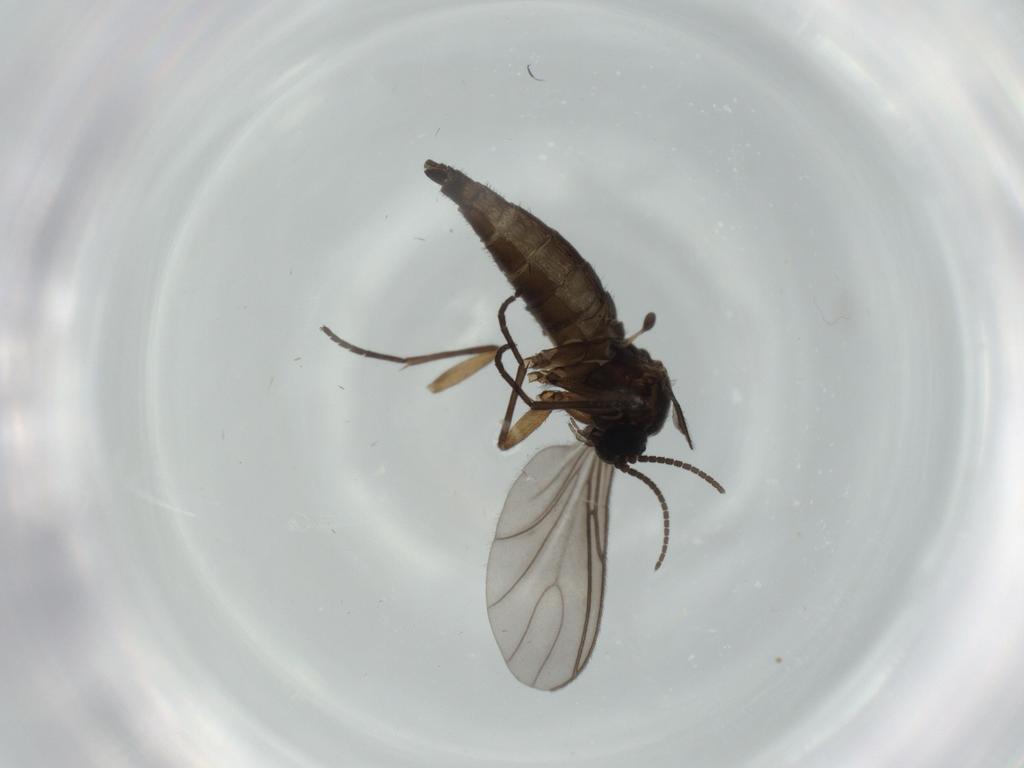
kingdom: Animalia
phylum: Arthropoda
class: Insecta
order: Diptera
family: Sciaridae
